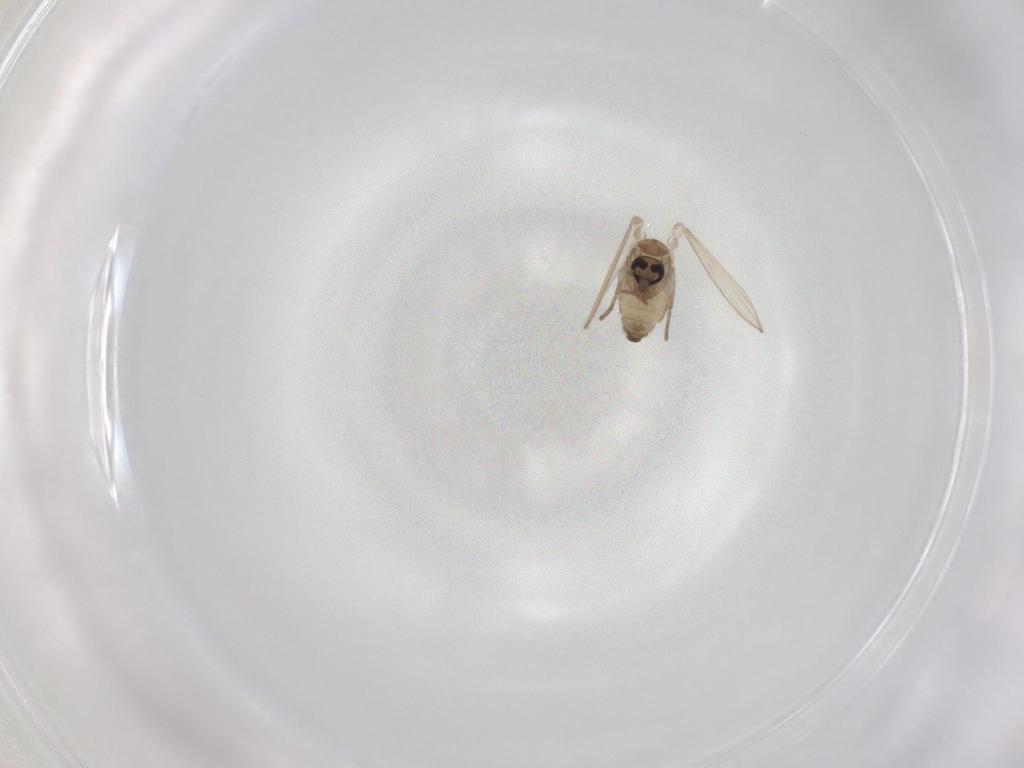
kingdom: Animalia
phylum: Arthropoda
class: Insecta
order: Diptera
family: Psychodidae
